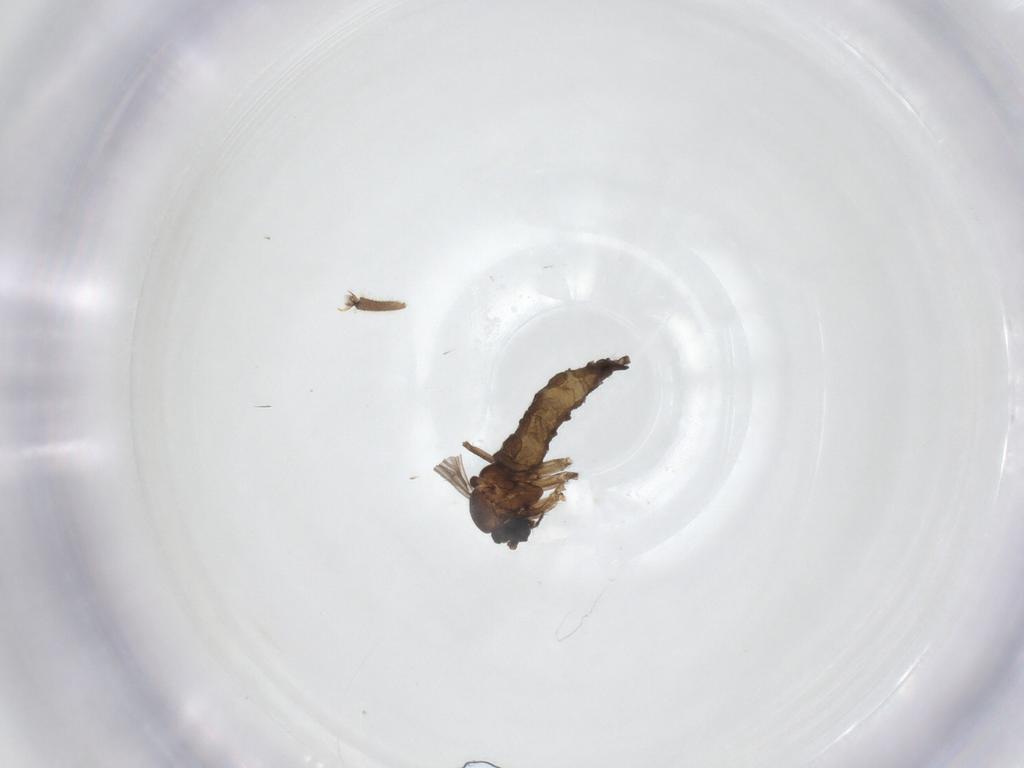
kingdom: Animalia
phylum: Arthropoda
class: Insecta
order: Diptera
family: Sciaridae
